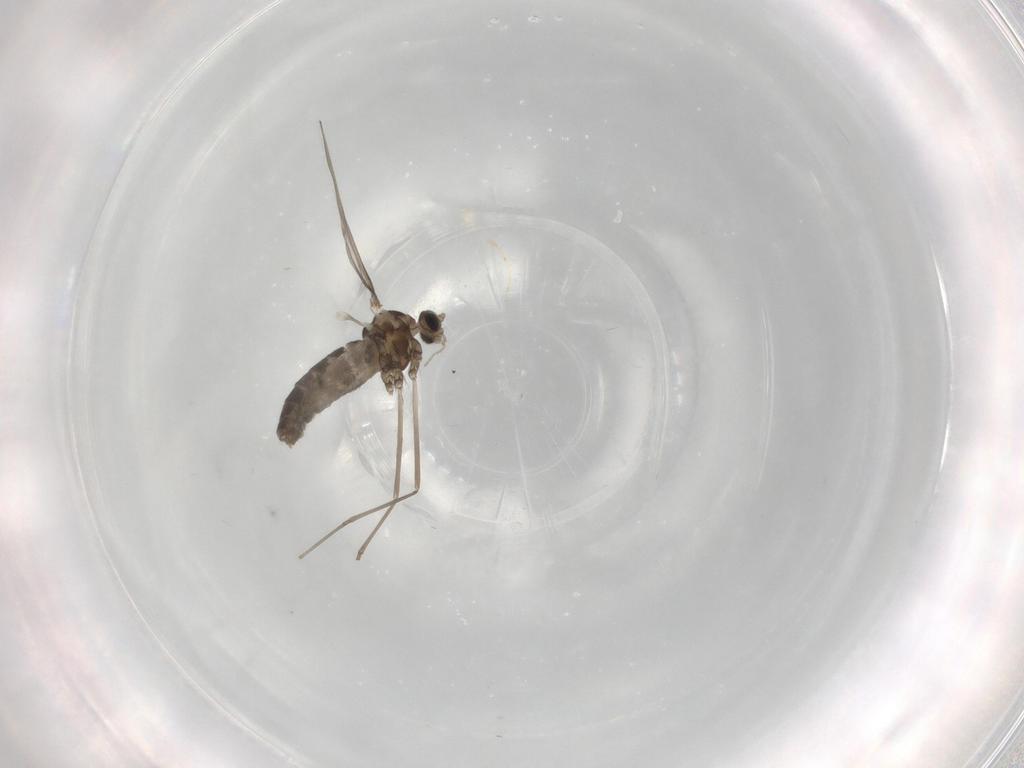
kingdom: Animalia
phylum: Arthropoda
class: Insecta
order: Diptera
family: Cecidomyiidae
